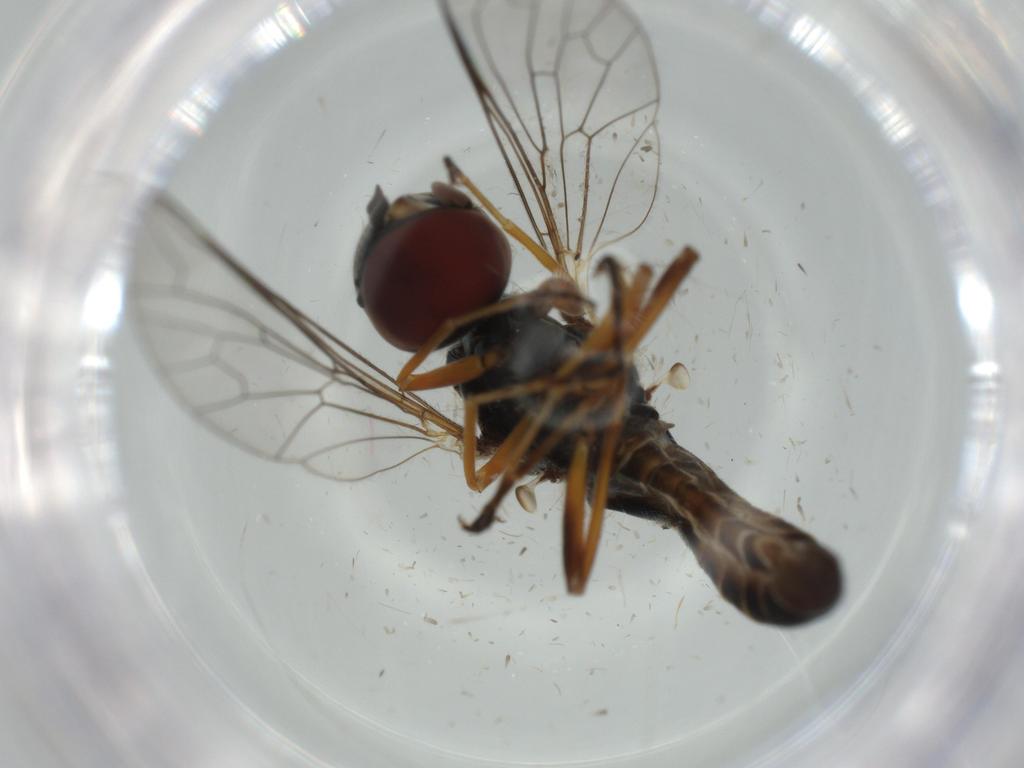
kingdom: Animalia
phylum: Arthropoda
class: Insecta
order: Diptera
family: Bombyliidae
